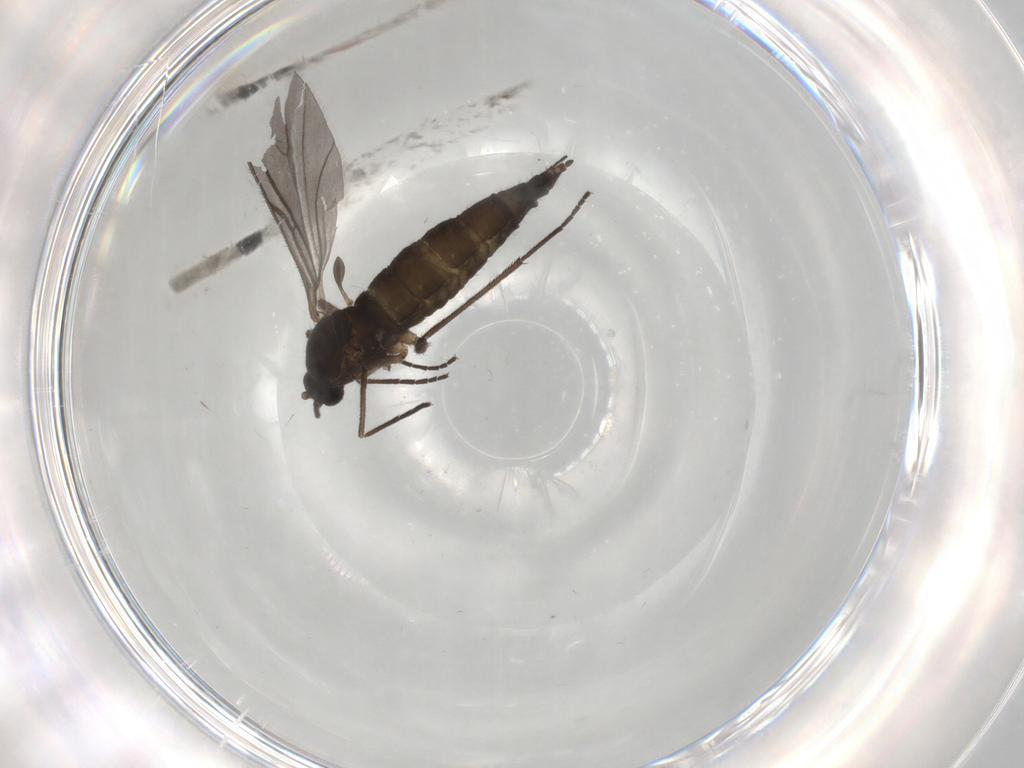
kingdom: Animalia
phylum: Arthropoda
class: Insecta
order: Diptera
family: Sciaridae
